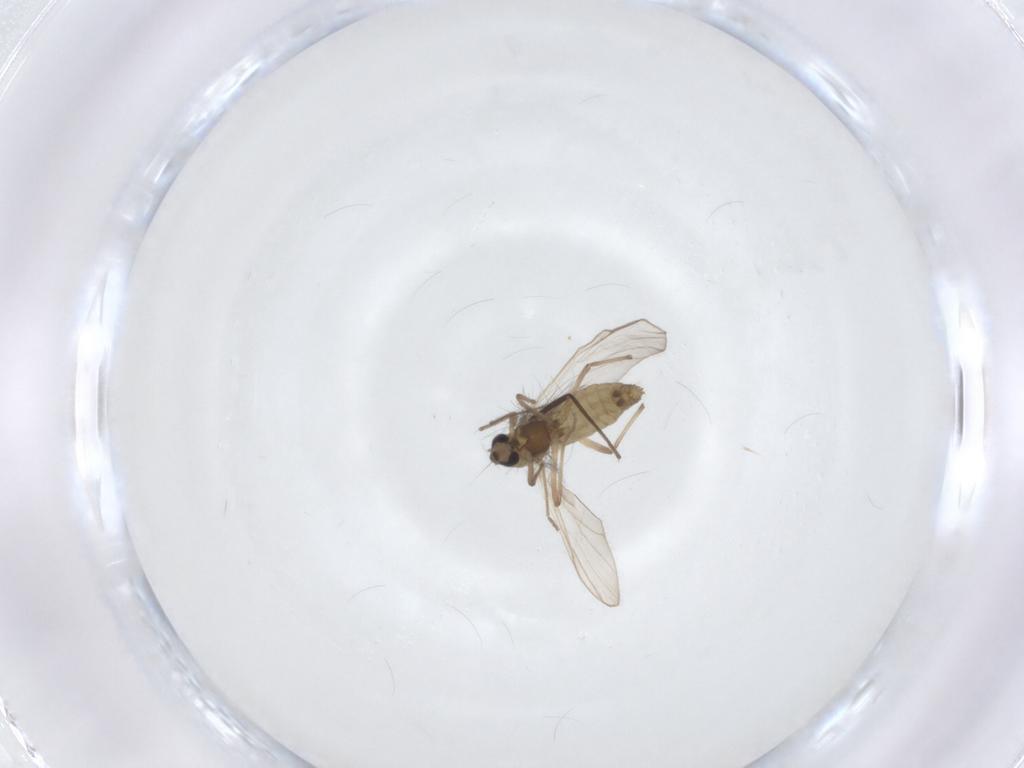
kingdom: Animalia
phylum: Arthropoda
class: Insecta
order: Diptera
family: Chironomidae
